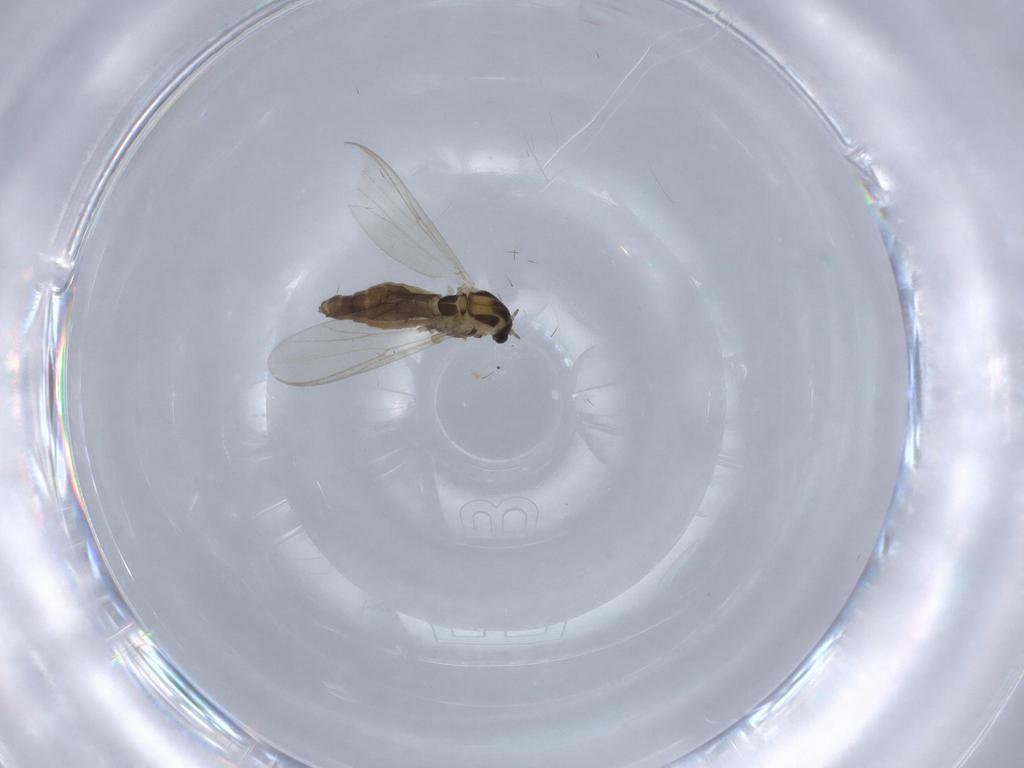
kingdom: Animalia
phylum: Arthropoda
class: Insecta
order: Diptera
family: Chironomidae
